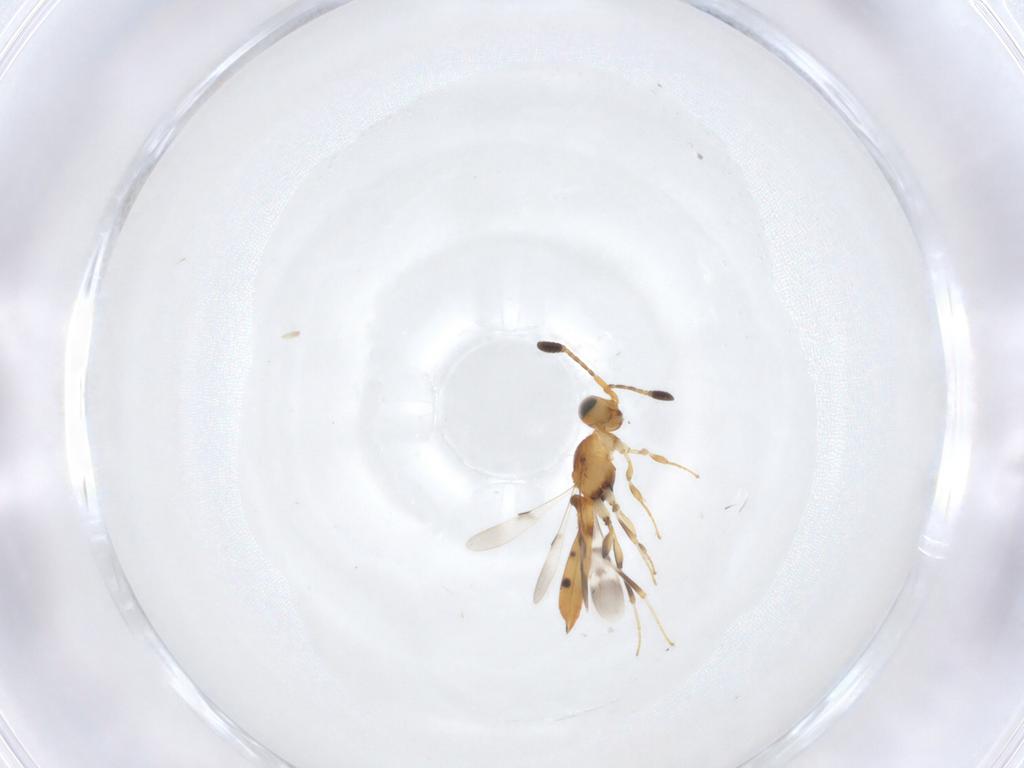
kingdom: Animalia
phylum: Arthropoda
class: Insecta
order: Hymenoptera
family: Scelionidae
